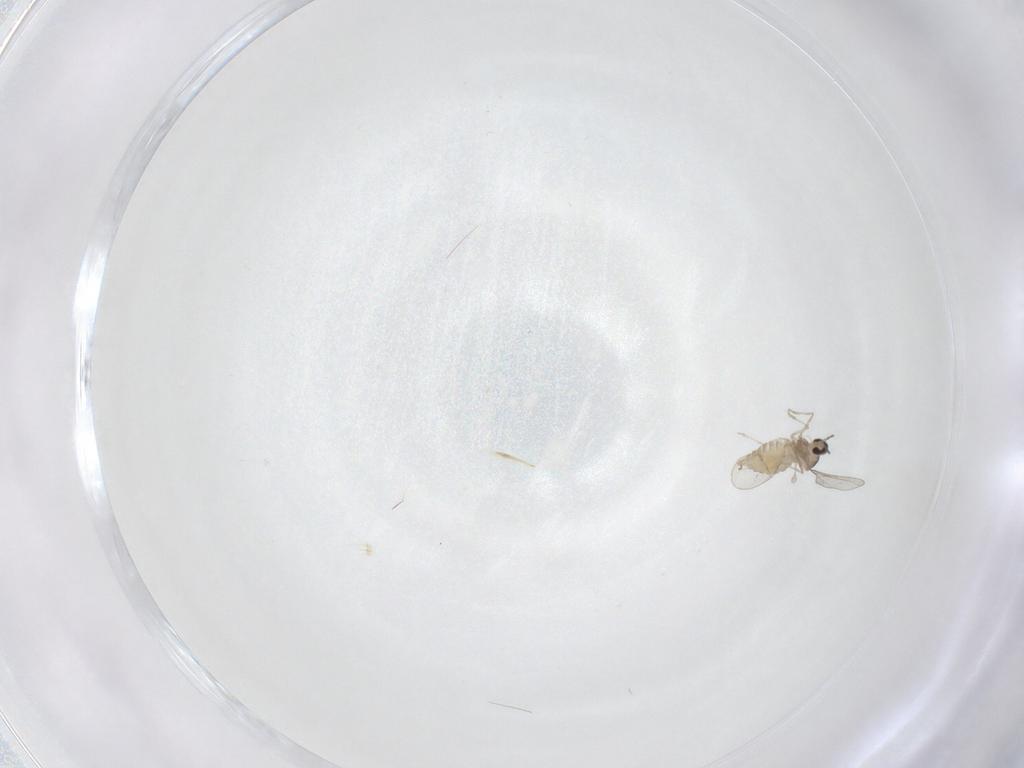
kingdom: Animalia
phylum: Arthropoda
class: Insecta
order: Diptera
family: Chironomidae
